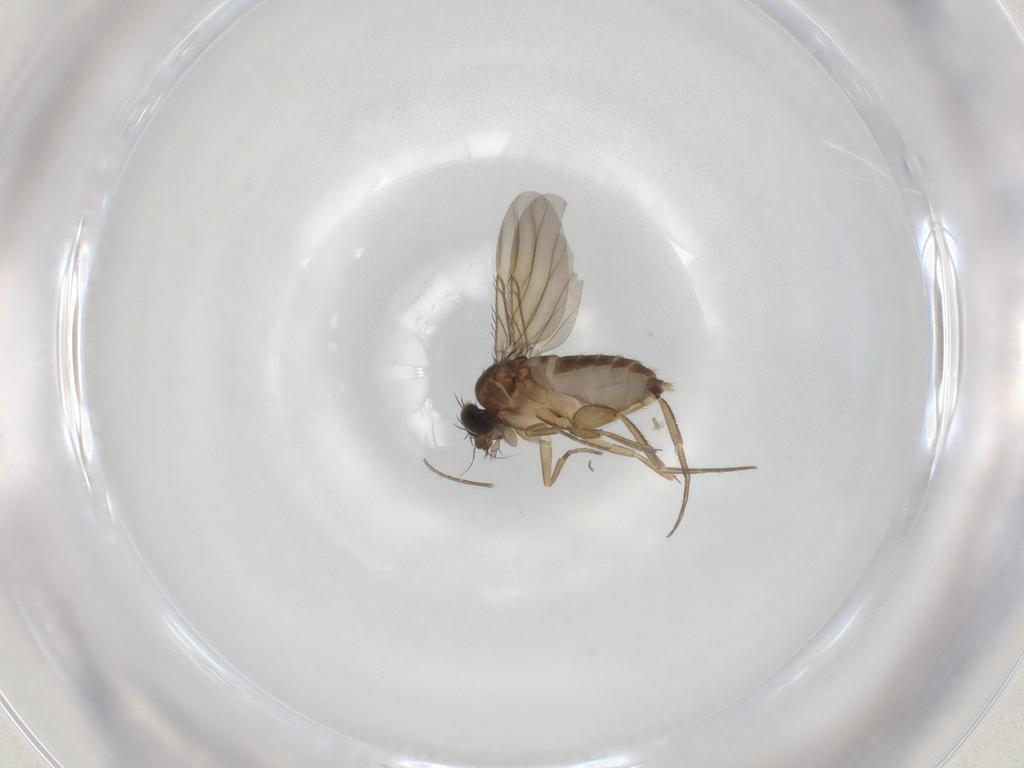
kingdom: Animalia
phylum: Arthropoda
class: Insecta
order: Diptera
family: Phoridae
